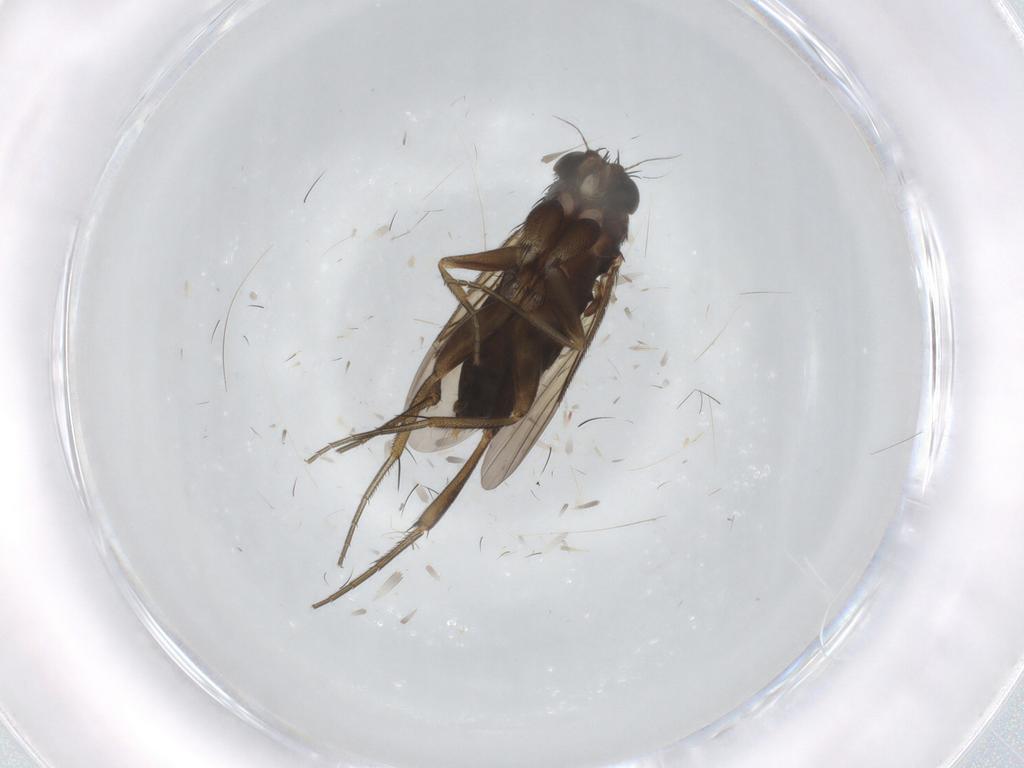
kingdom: Animalia
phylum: Arthropoda
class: Insecta
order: Diptera
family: Phoridae
